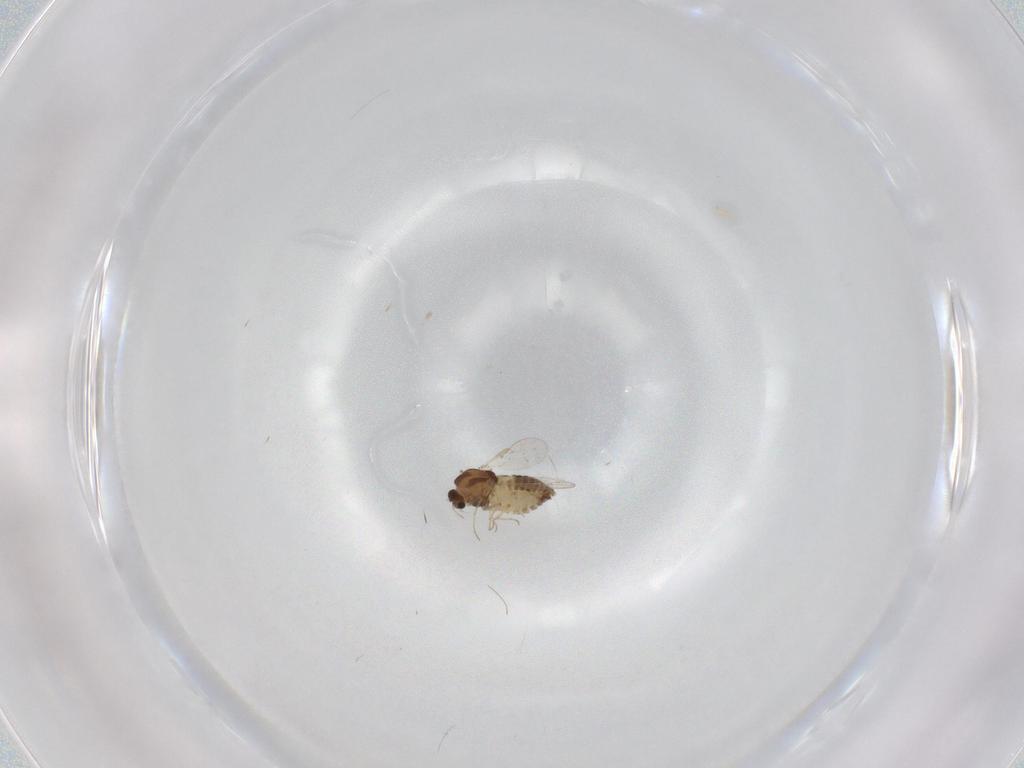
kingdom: Animalia
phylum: Arthropoda
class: Insecta
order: Diptera
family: Chironomidae
